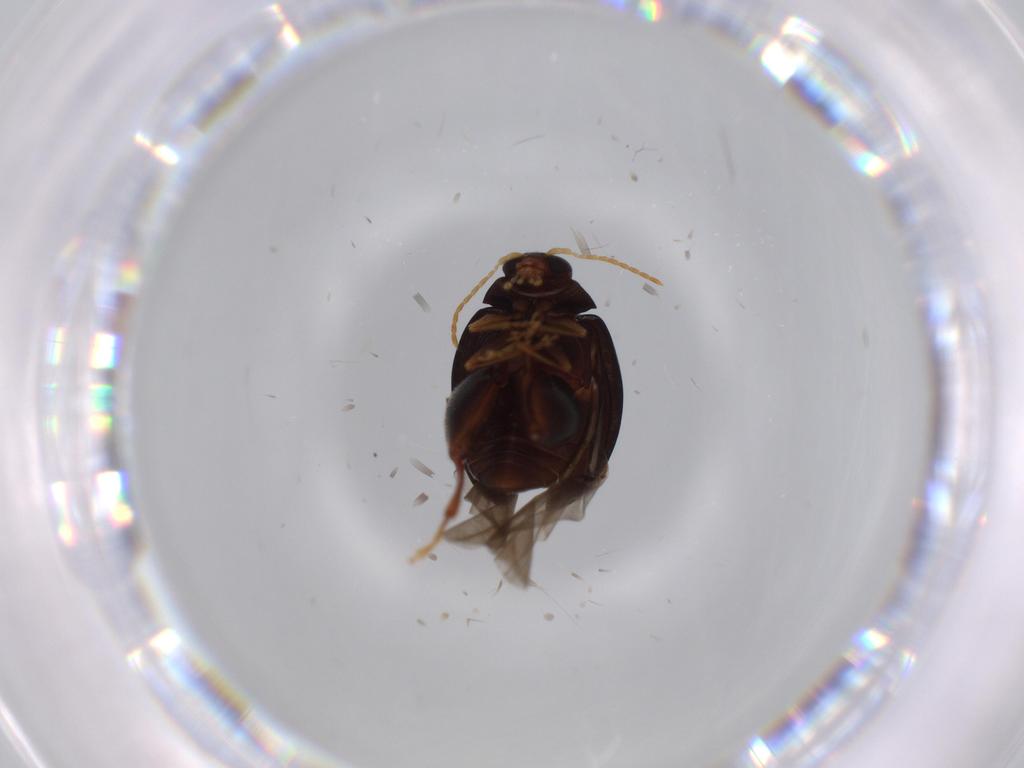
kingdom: Animalia
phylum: Arthropoda
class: Insecta
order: Coleoptera
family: Chrysomelidae
